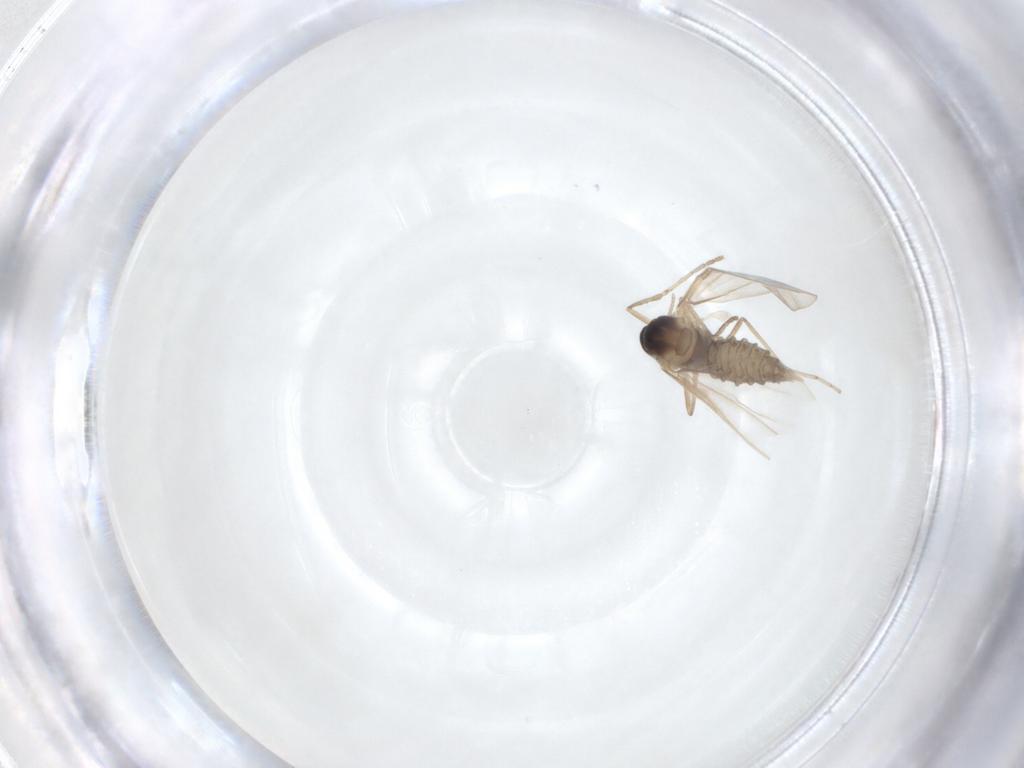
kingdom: Animalia
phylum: Arthropoda
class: Insecta
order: Diptera
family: Cecidomyiidae
